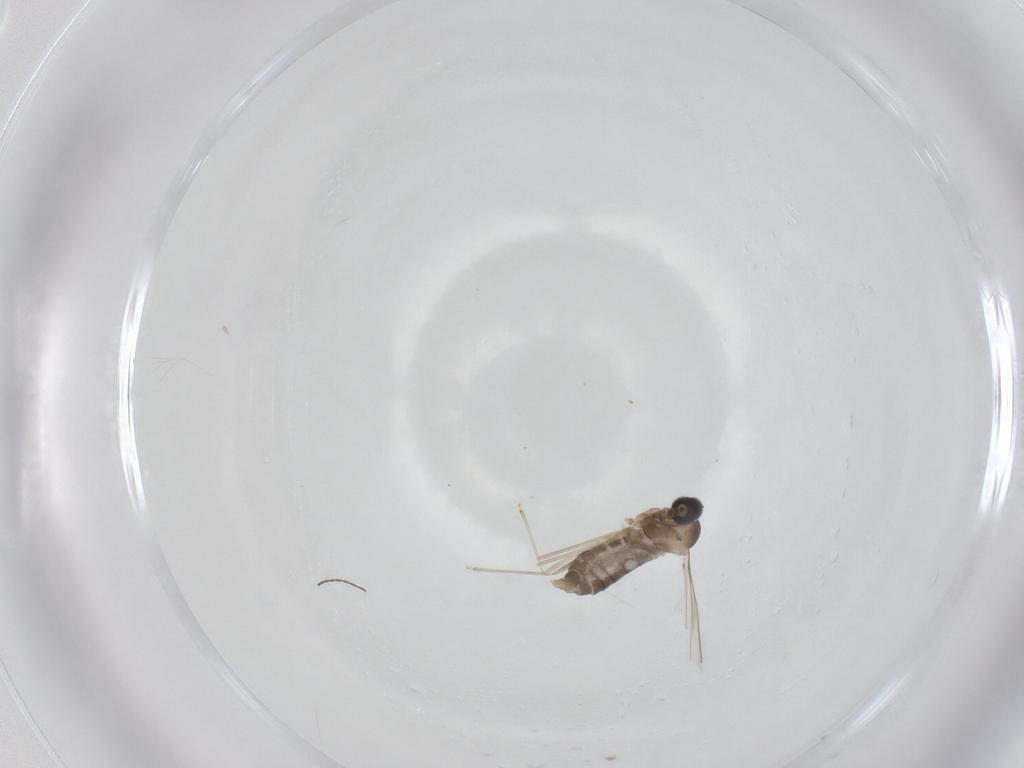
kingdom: Animalia
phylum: Arthropoda
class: Insecta
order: Diptera
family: Cecidomyiidae
